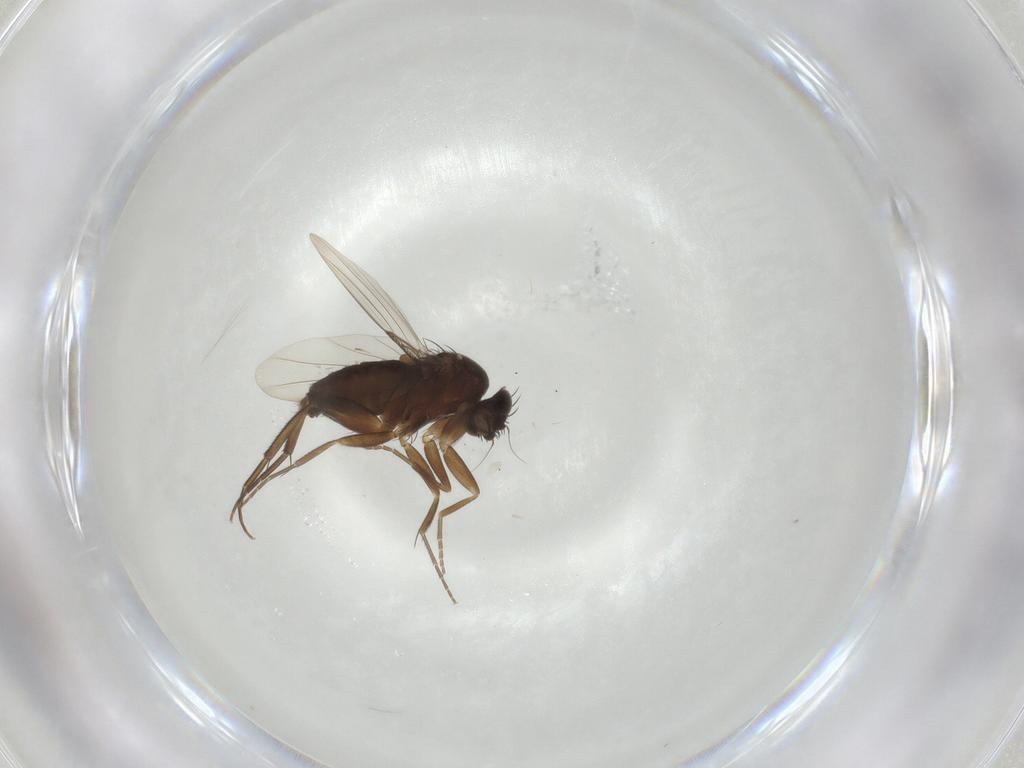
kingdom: Animalia
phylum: Arthropoda
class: Insecta
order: Diptera
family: Phoridae
